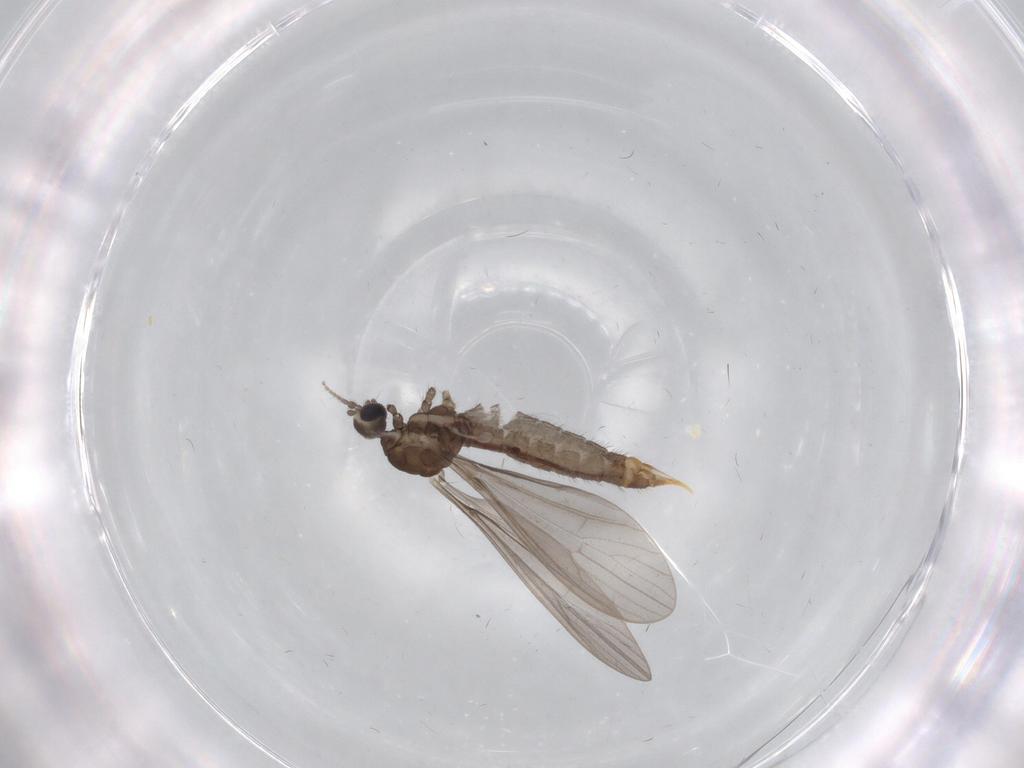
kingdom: Animalia
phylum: Arthropoda
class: Insecta
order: Diptera
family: Limoniidae
